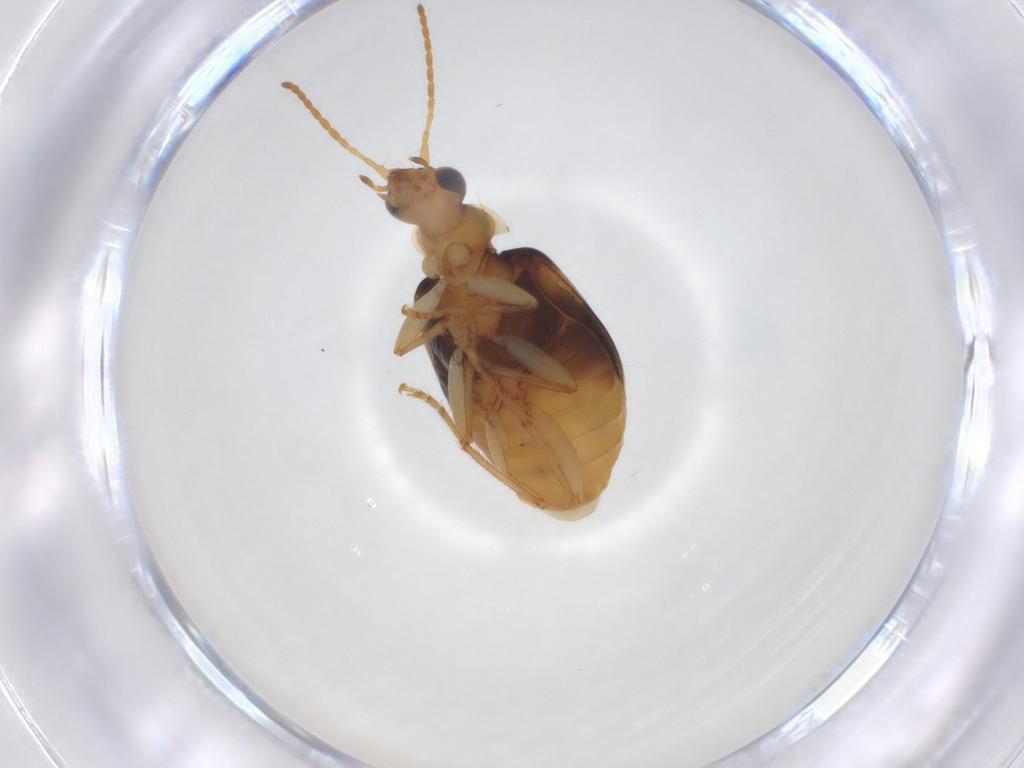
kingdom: Animalia
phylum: Arthropoda
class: Insecta
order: Coleoptera
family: Carabidae
